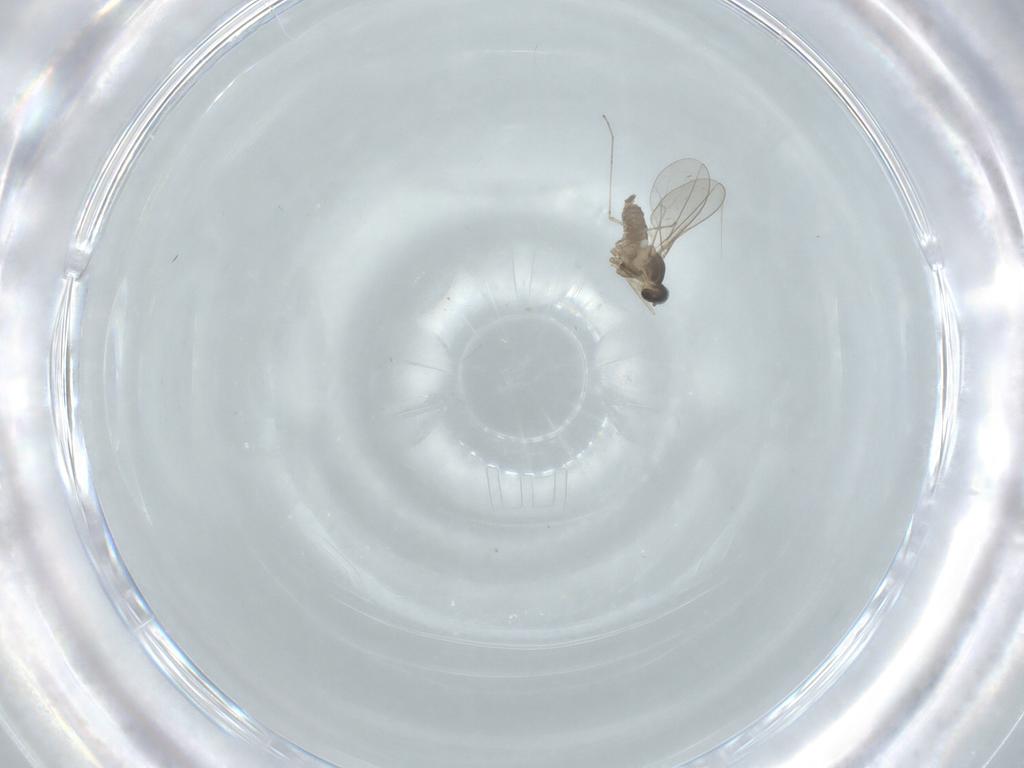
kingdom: Animalia
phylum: Arthropoda
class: Insecta
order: Diptera
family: Cecidomyiidae
